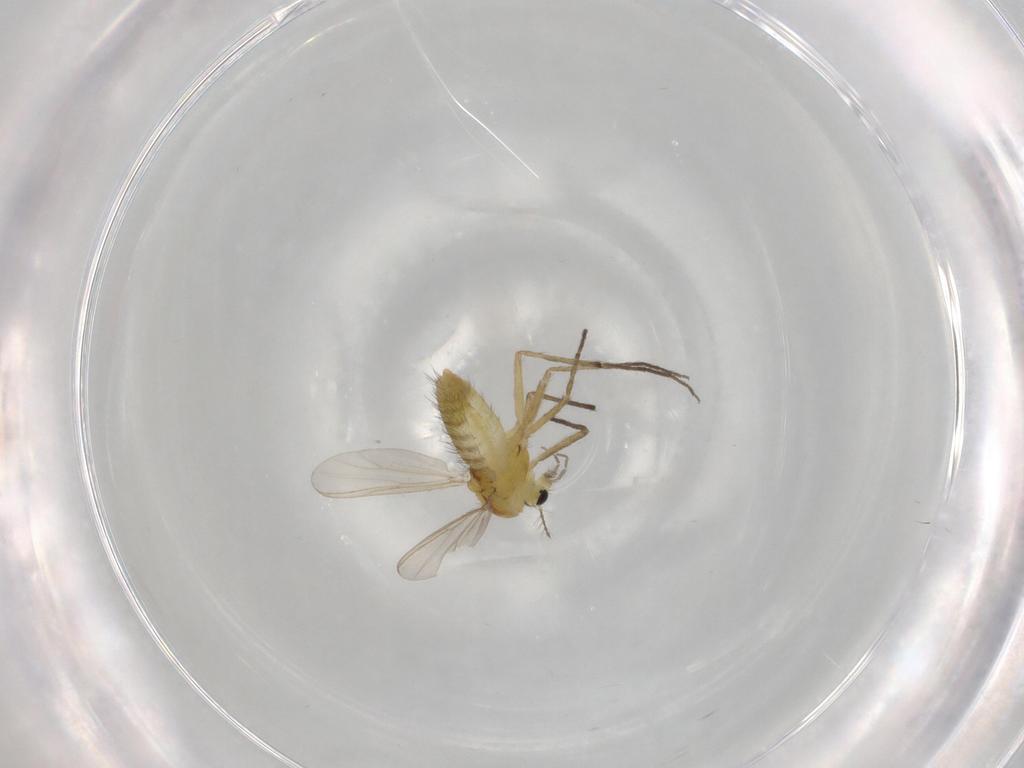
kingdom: Animalia
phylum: Arthropoda
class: Insecta
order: Diptera
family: Chironomidae
